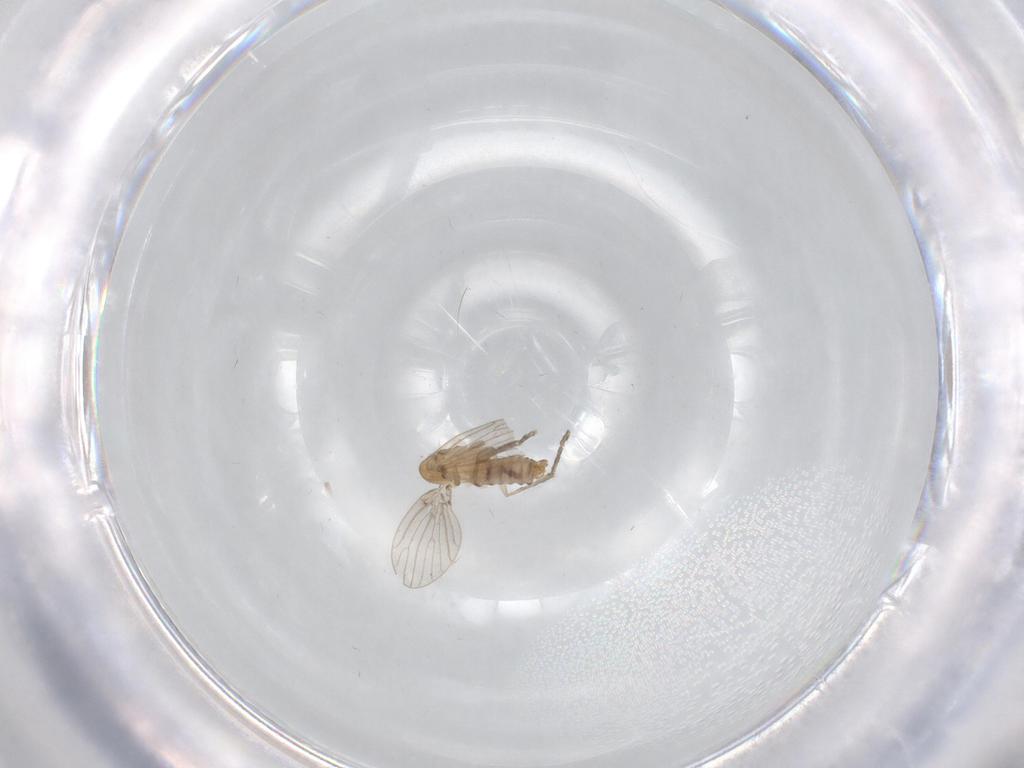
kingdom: Animalia
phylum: Arthropoda
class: Insecta
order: Diptera
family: Psychodidae
